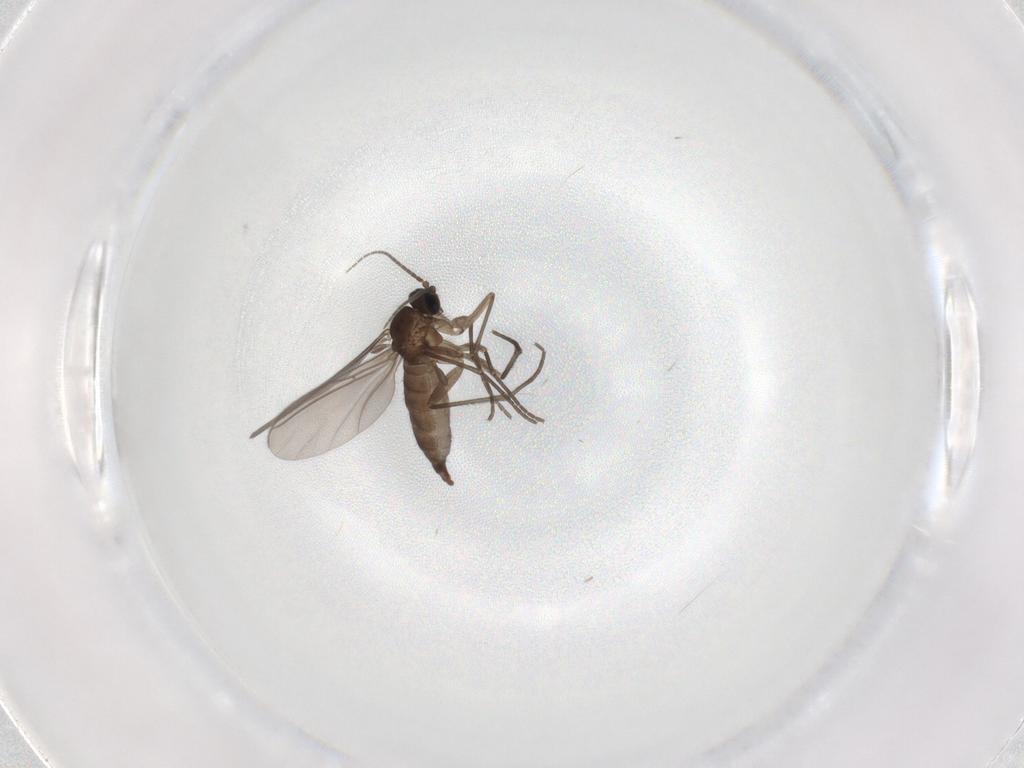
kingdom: Animalia
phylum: Arthropoda
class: Insecta
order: Diptera
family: Sciaridae
